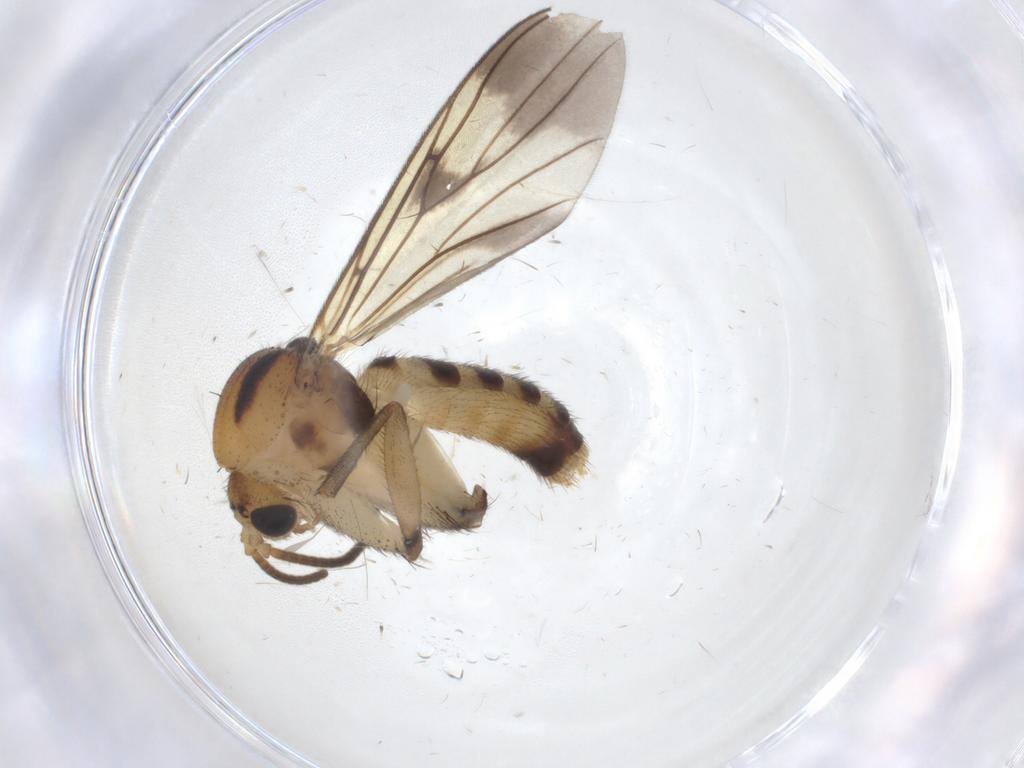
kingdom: Animalia
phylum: Arthropoda
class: Insecta
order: Diptera
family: Mycetophilidae
